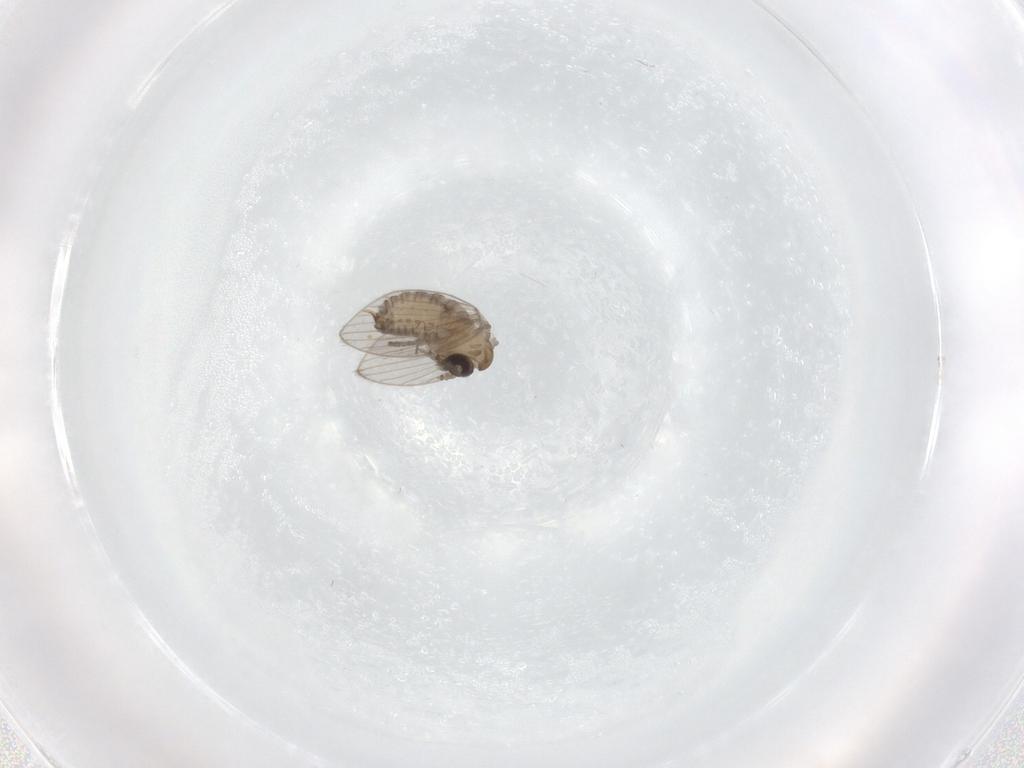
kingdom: Animalia
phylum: Arthropoda
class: Insecta
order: Diptera
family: Psychodidae
